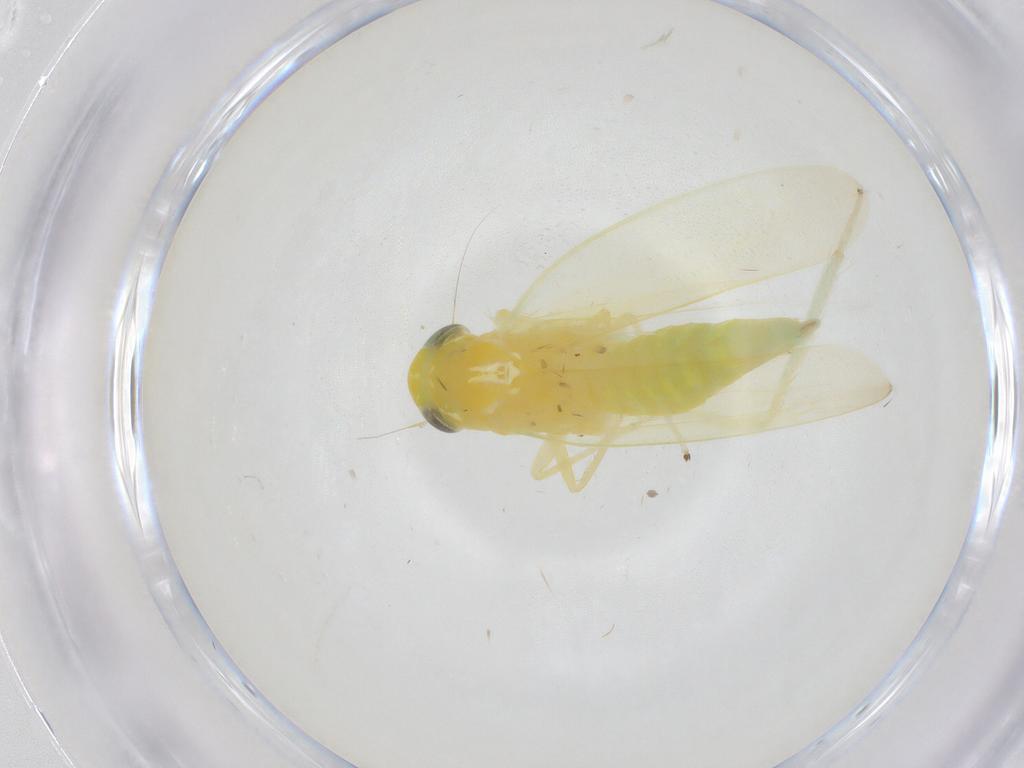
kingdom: Animalia
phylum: Arthropoda
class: Insecta
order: Hemiptera
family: Cicadellidae
